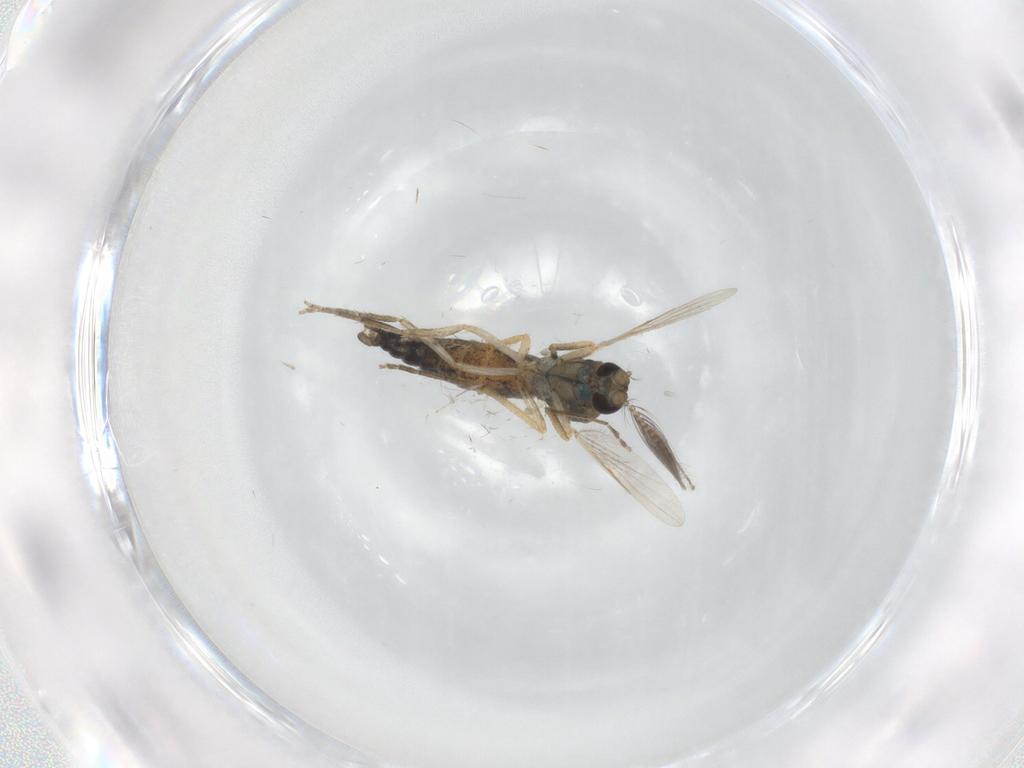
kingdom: Animalia
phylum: Arthropoda
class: Insecta
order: Diptera
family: Ceratopogonidae
